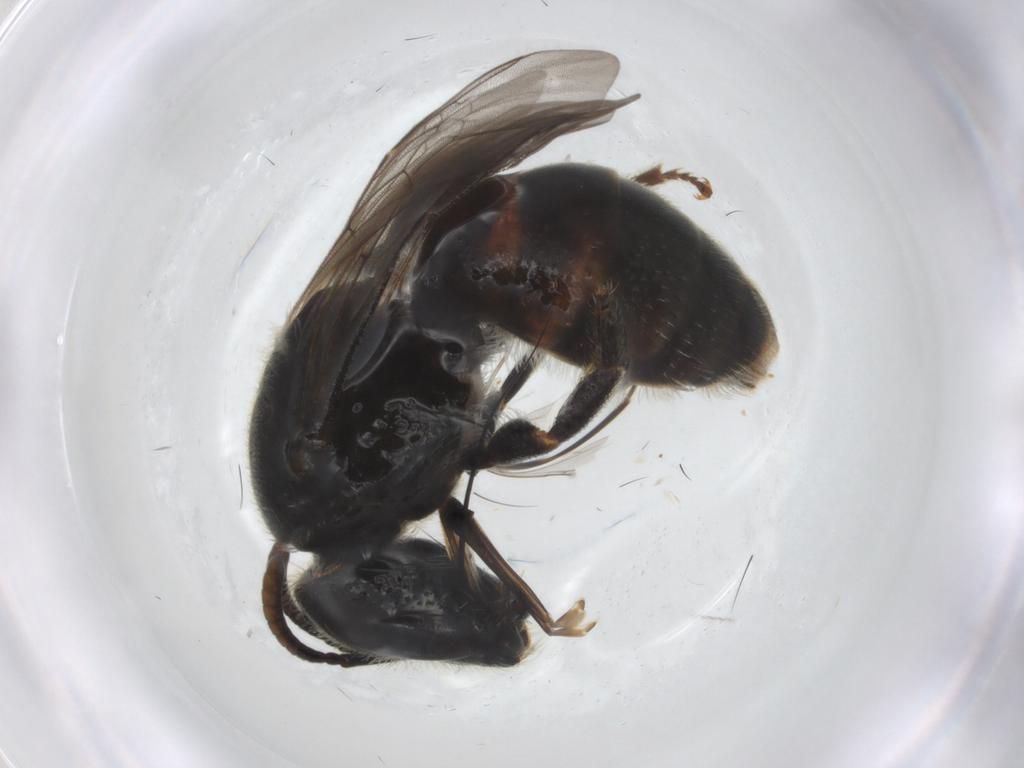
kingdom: Animalia
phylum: Arthropoda
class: Insecta
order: Hymenoptera
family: Halictidae
